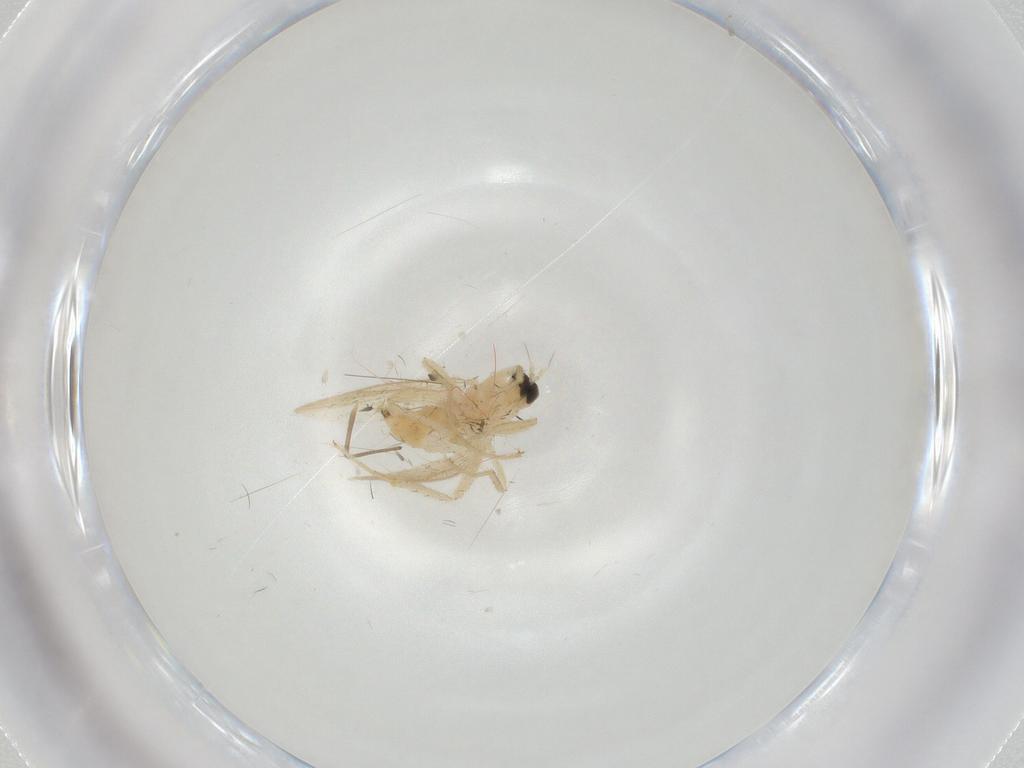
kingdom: Animalia
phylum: Arthropoda
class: Insecta
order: Diptera
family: Hybotidae
